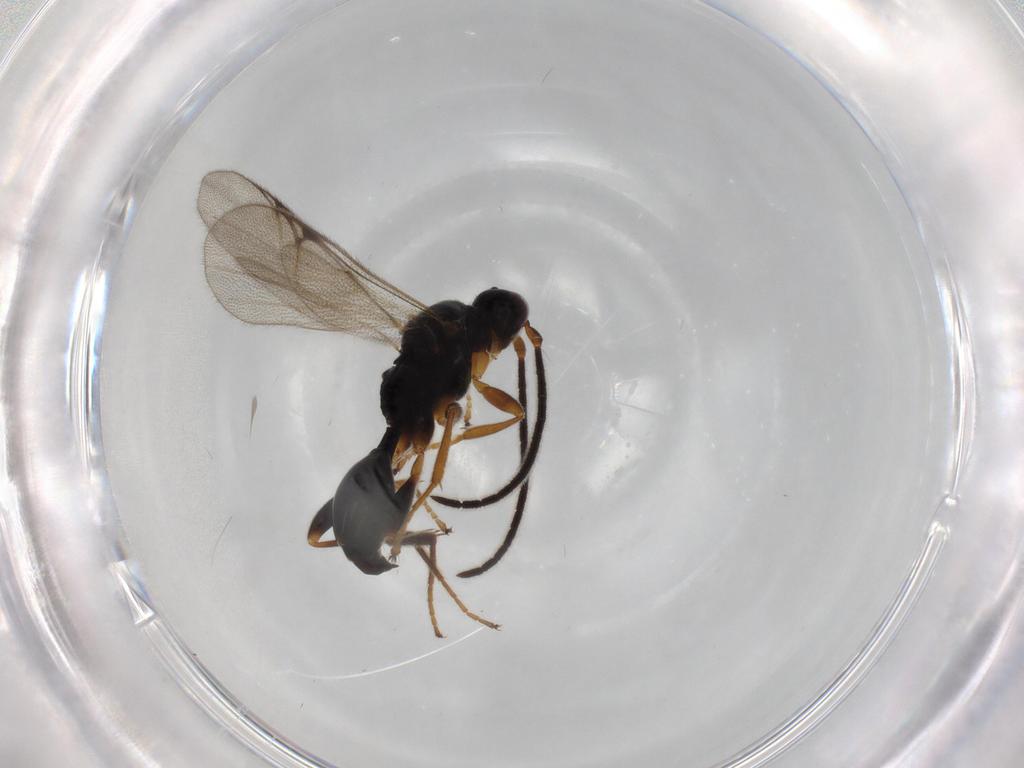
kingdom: Animalia
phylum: Arthropoda
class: Insecta
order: Hymenoptera
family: Proctotrupidae
